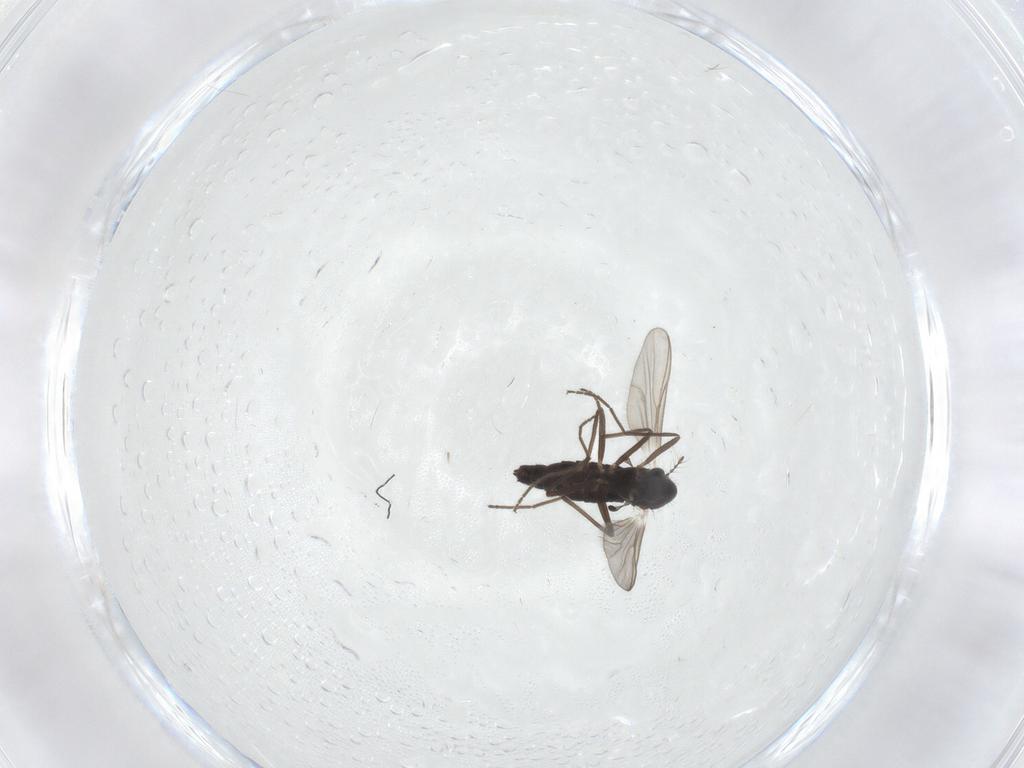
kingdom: Animalia
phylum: Arthropoda
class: Insecta
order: Diptera
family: Chironomidae
